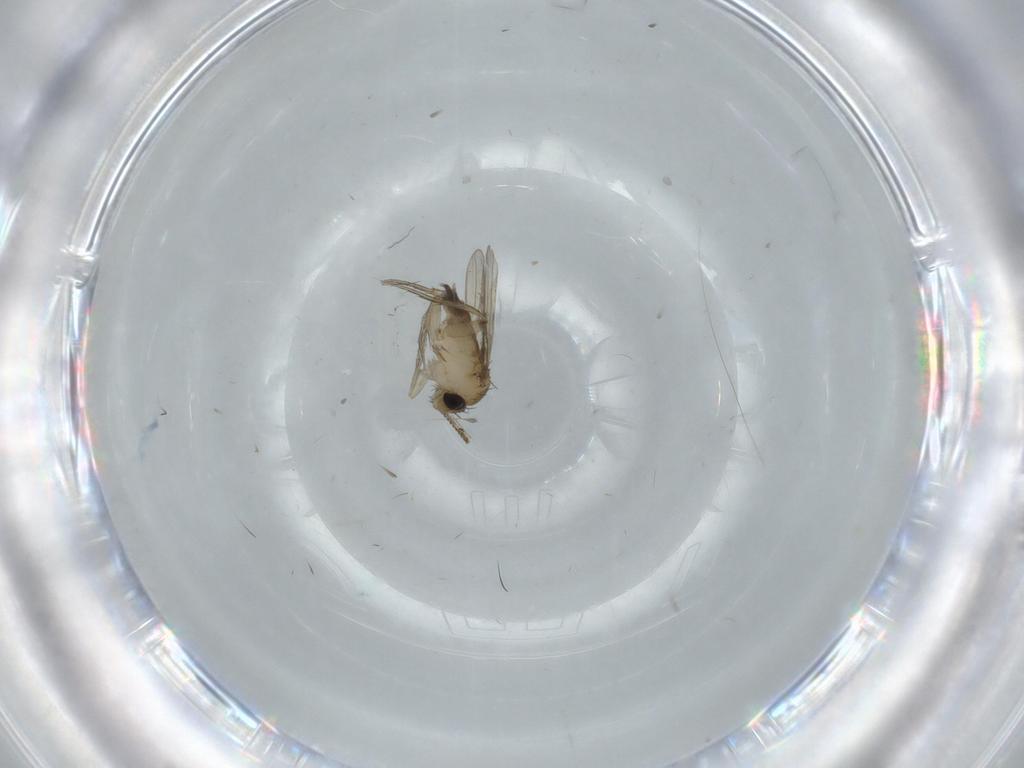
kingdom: Animalia
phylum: Arthropoda
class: Insecta
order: Diptera
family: Phoridae
